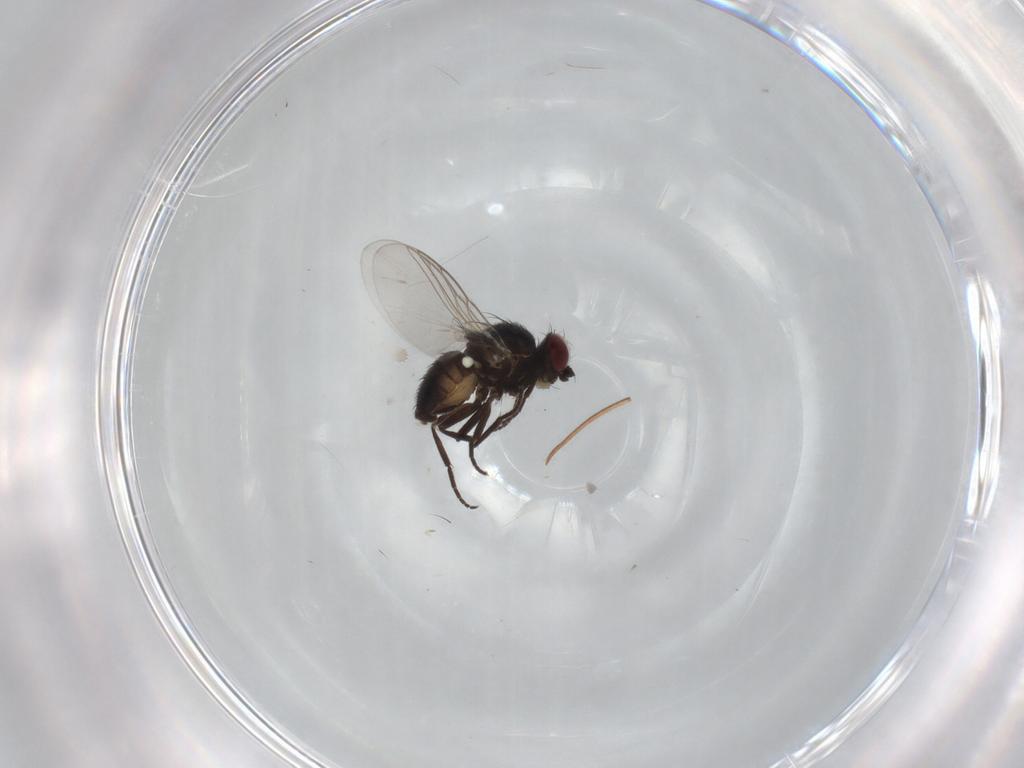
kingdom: Animalia
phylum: Arthropoda
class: Insecta
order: Diptera
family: Agromyzidae
